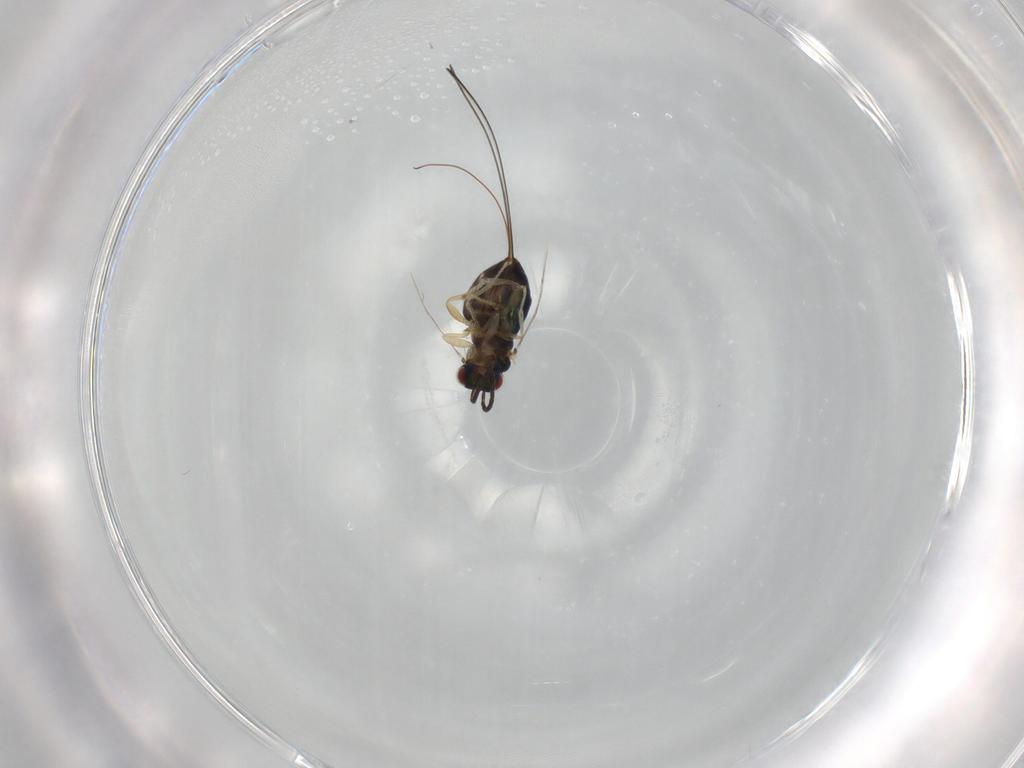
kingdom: Animalia
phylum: Arthropoda
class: Insecta
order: Hymenoptera
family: Pteromalidae
